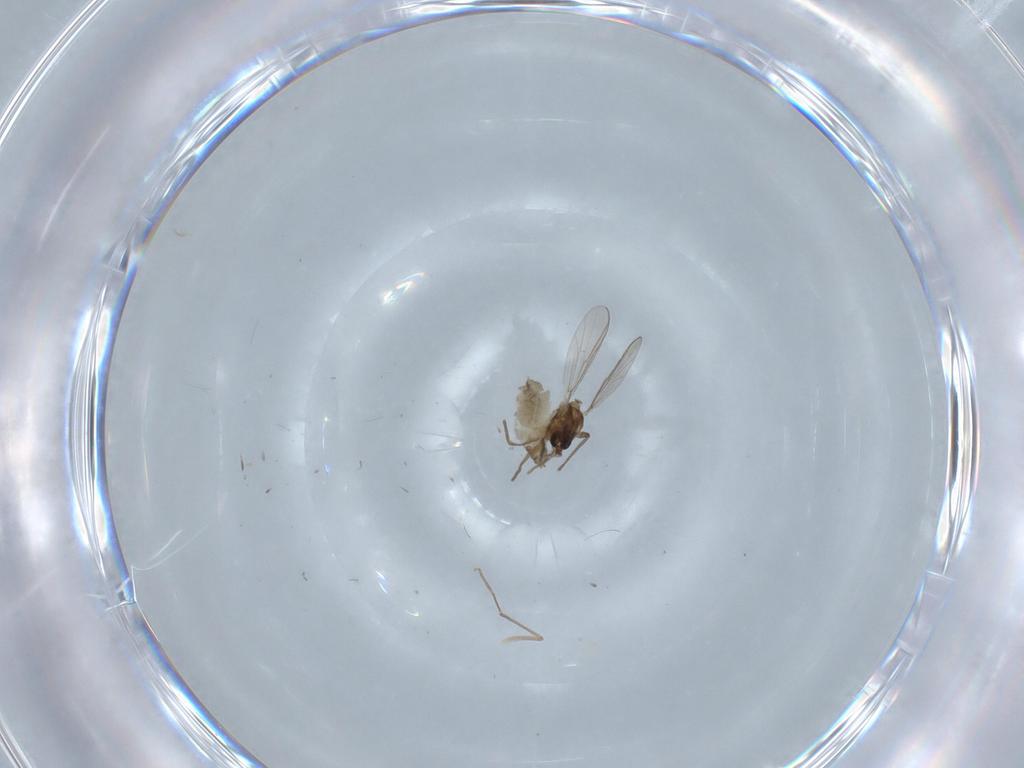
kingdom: Animalia
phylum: Arthropoda
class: Insecta
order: Diptera
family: Chironomidae
